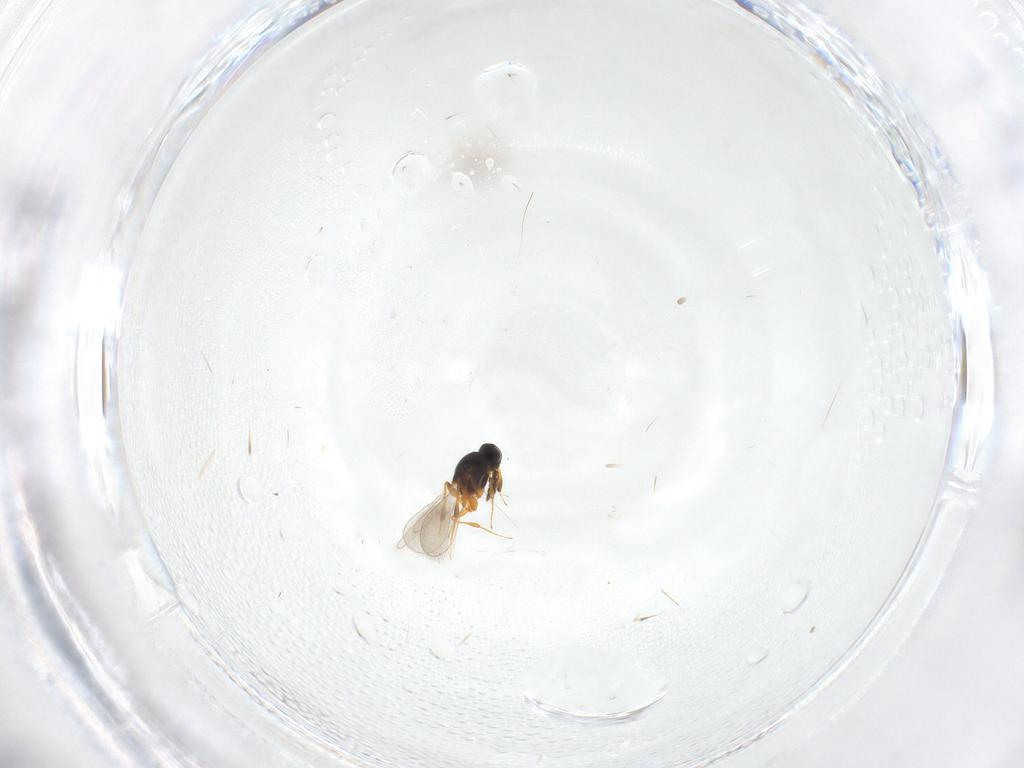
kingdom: Animalia
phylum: Arthropoda
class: Insecta
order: Hymenoptera
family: Platygastridae
